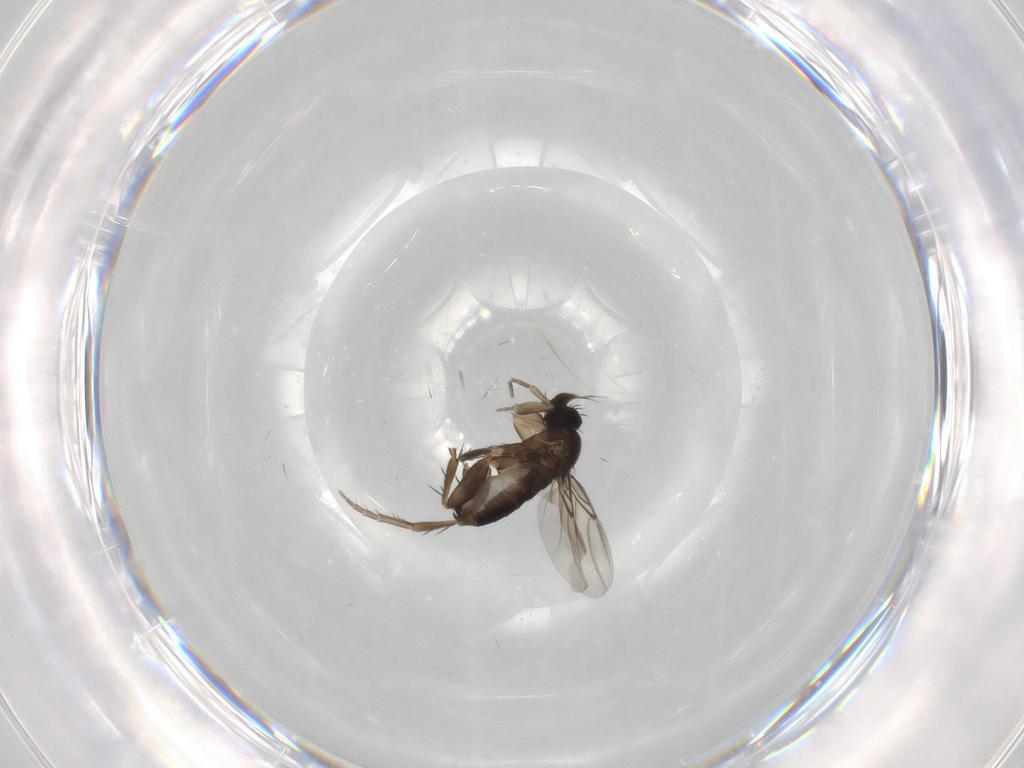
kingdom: Animalia
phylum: Arthropoda
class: Insecta
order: Diptera
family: Phoridae
